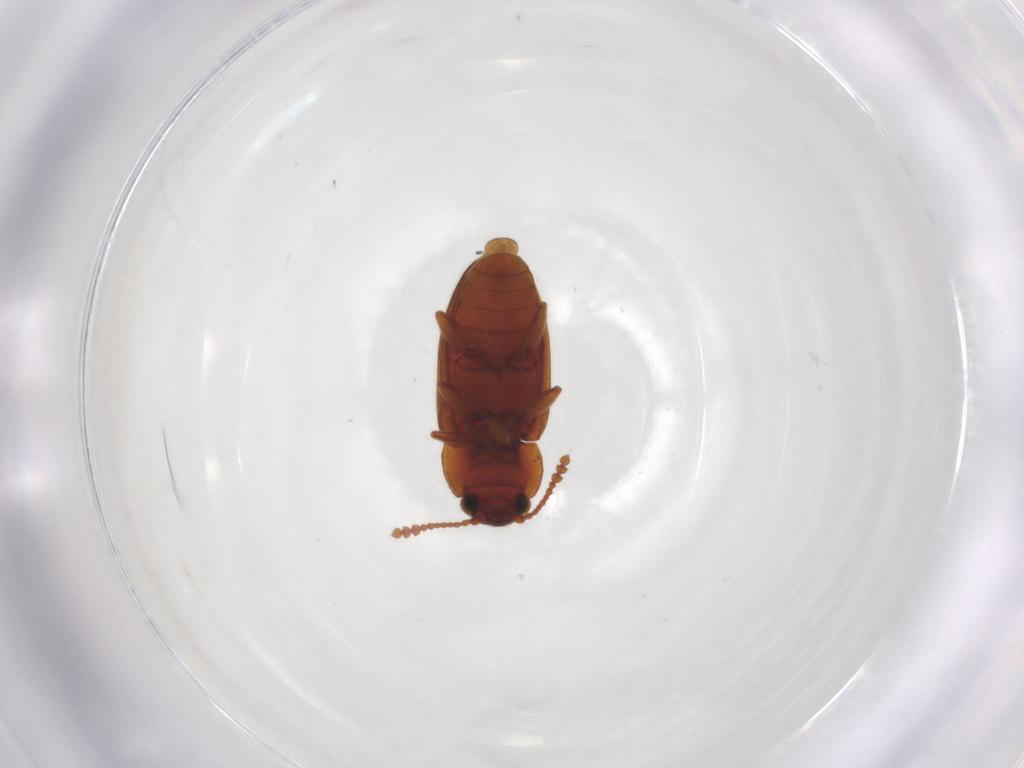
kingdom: Animalia
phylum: Arthropoda
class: Insecta
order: Coleoptera
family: Erotylidae
